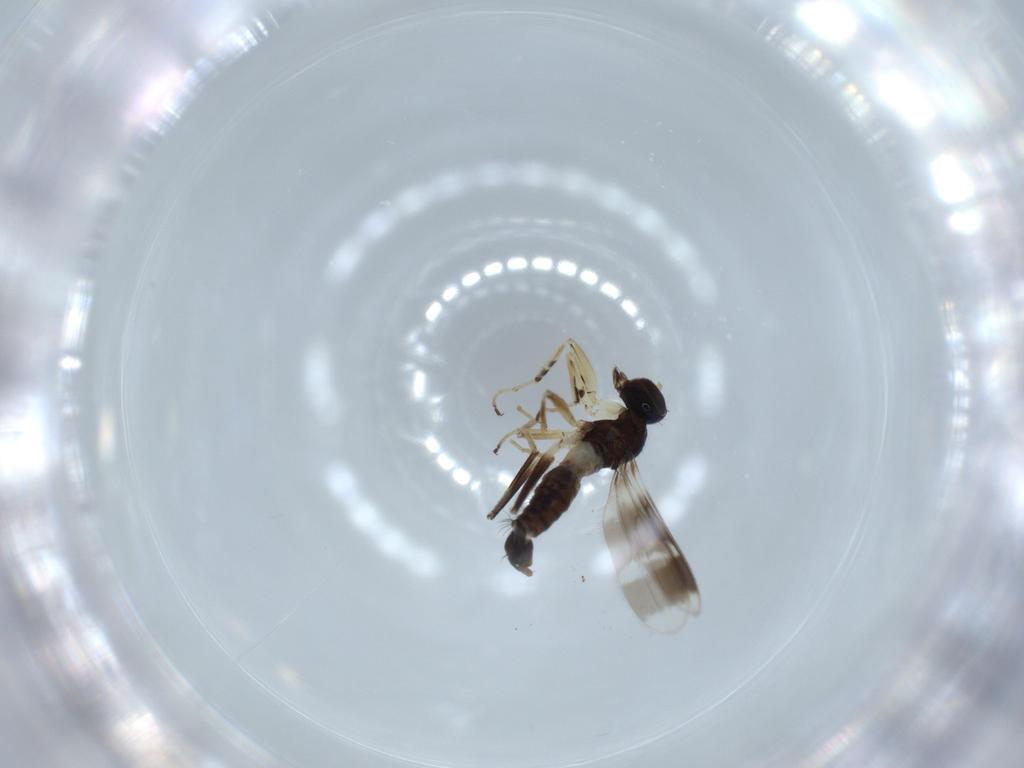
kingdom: Animalia
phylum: Arthropoda
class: Insecta
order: Diptera
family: Hybotidae
